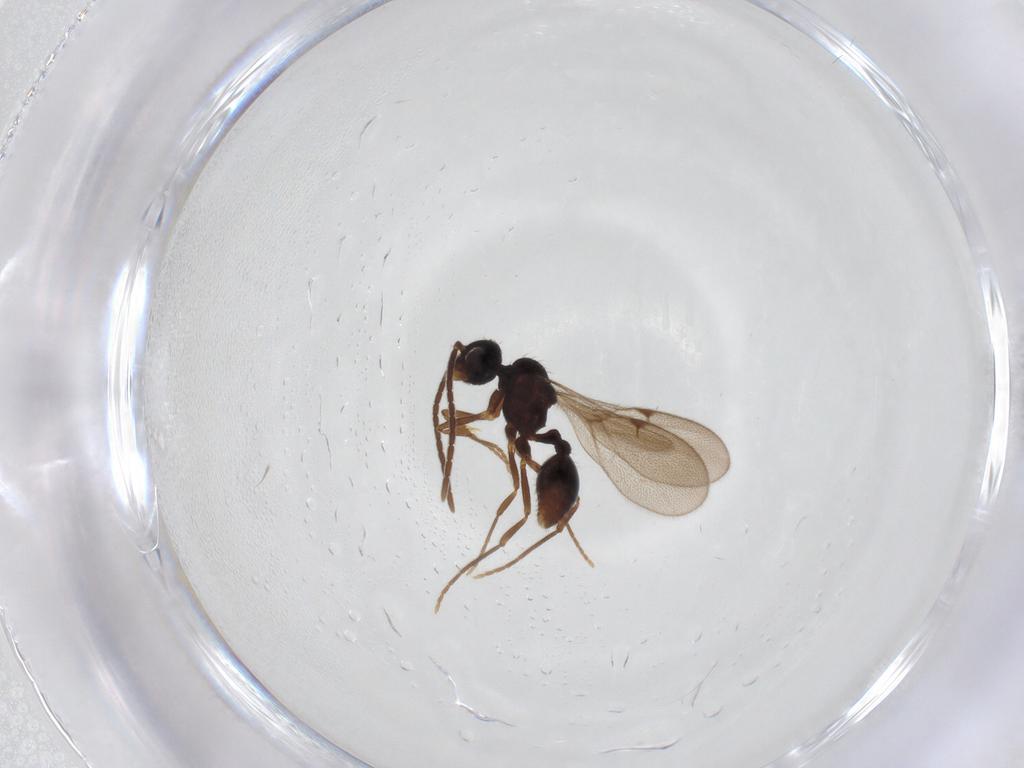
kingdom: Animalia
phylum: Arthropoda
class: Insecta
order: Hymenoptera
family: Formicidae
